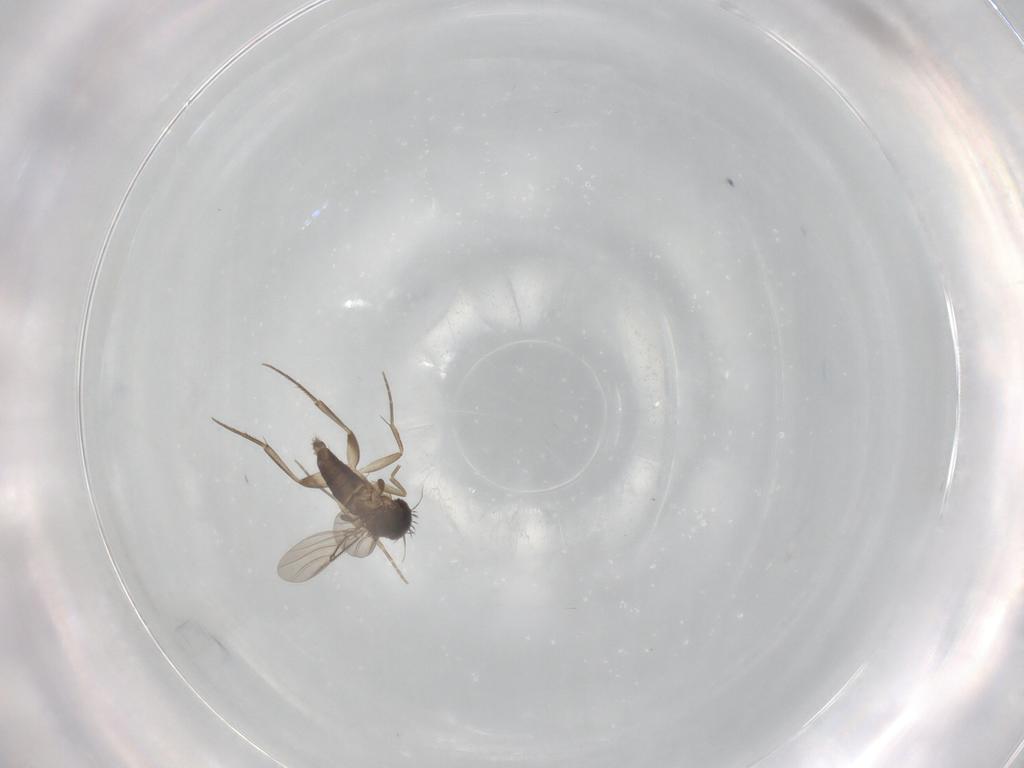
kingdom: Animalia
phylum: Arthropoda
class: Insecta
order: Diptera
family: Phoridae
